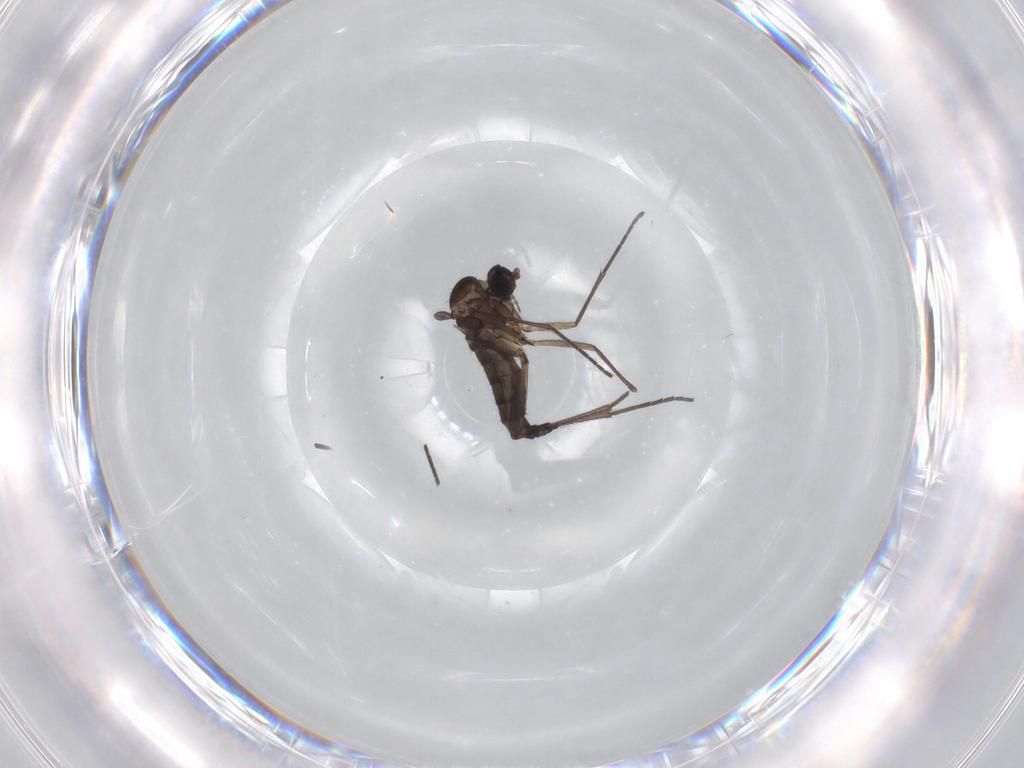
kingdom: Animalia
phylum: Arthropoda
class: Insecta
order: Diptera
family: Sciaridae
